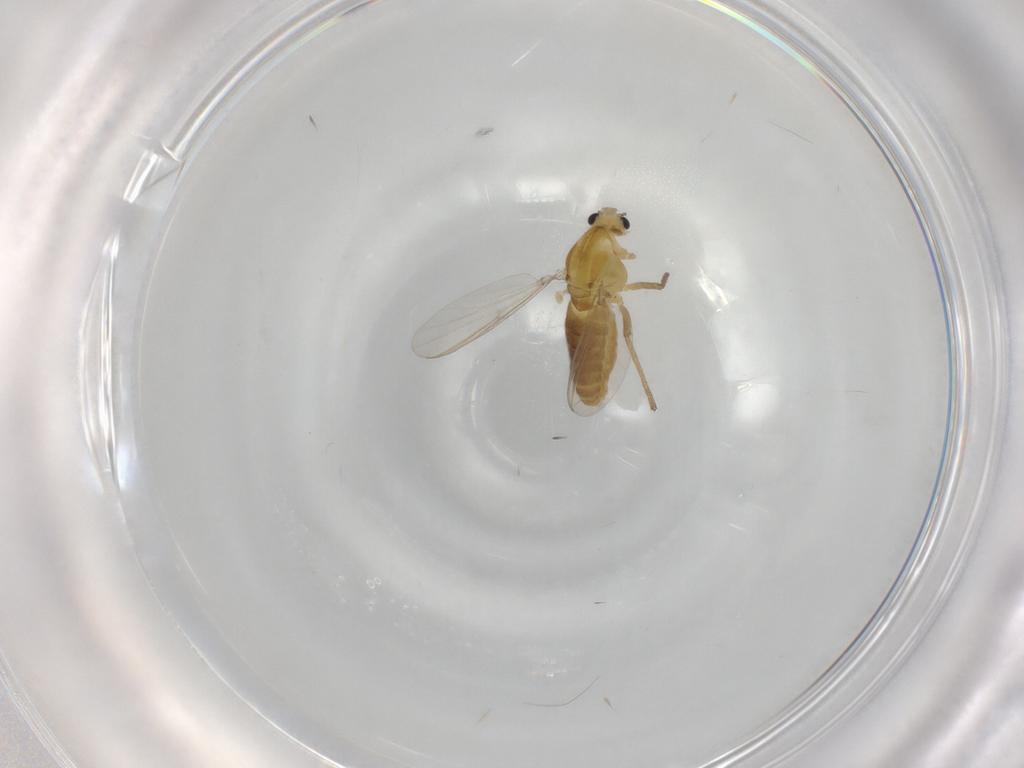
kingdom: Animalia
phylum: Arthropoda
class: Insecta
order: Diptera
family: Chironomidae
